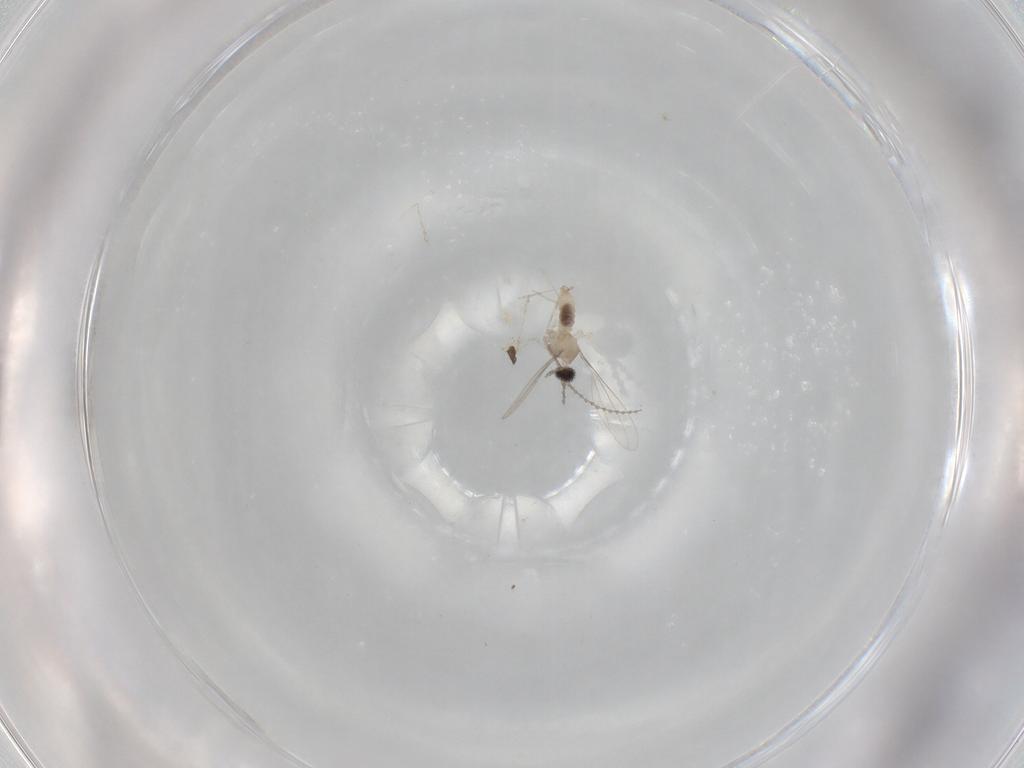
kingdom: Animalia
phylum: Arthropoda
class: Insecta
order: Diptera
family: Cecidomyiidae
